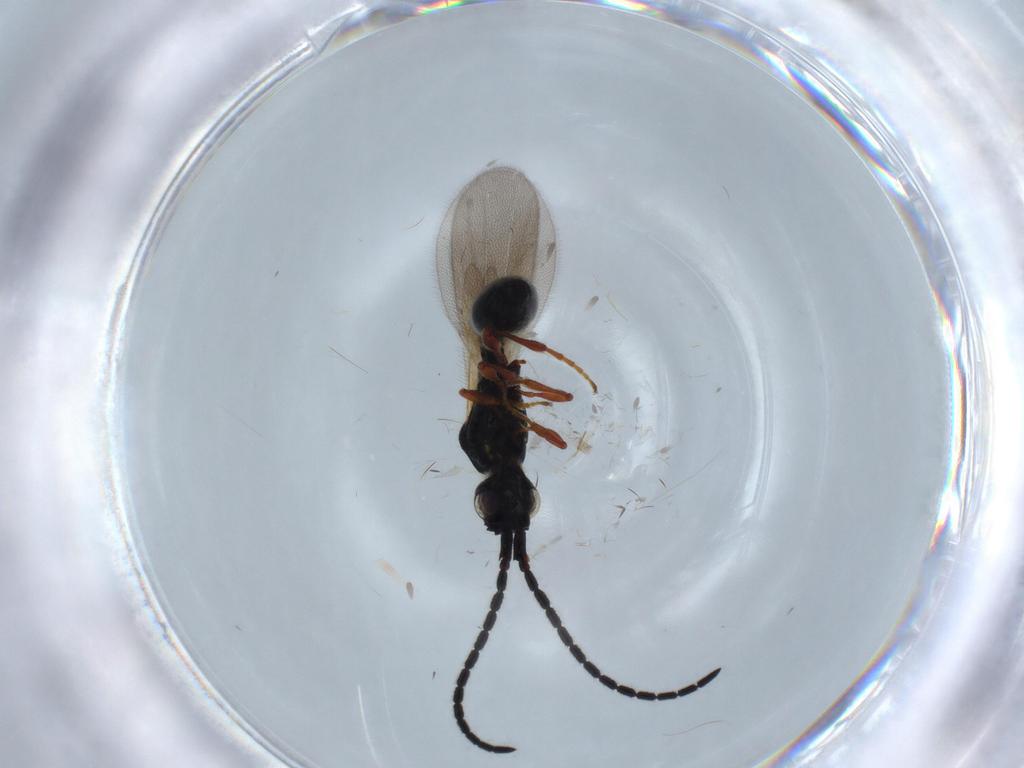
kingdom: Animalia
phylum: Arthropoda
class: Insecta
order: Hymenoptera
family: Diapriidae
